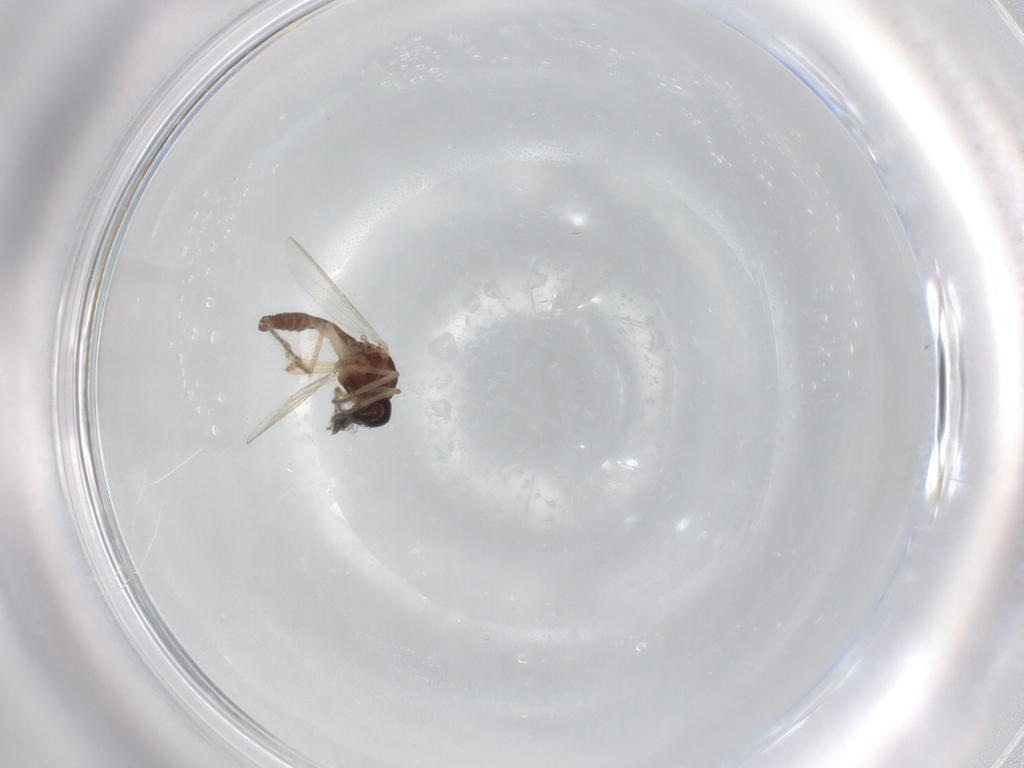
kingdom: Animalia
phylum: Arthropoda
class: Insecta
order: Diptera
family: Ceratopogonidae
